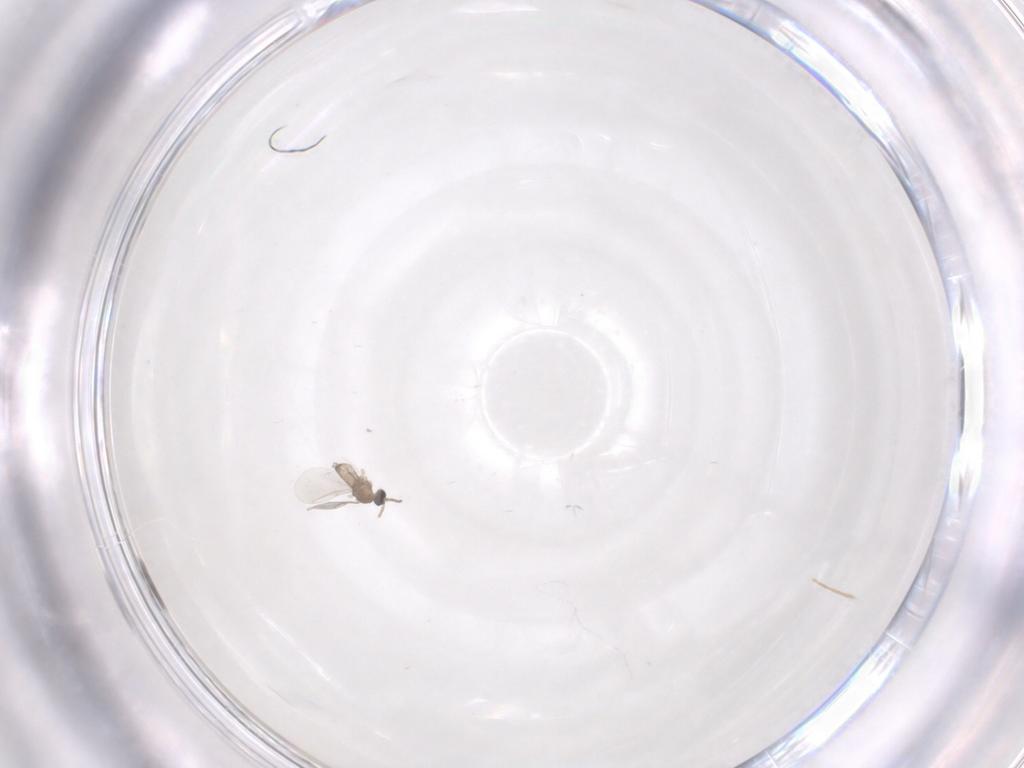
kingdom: Animalia
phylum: Arthropoda
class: Insecta
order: Diptera
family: Cecidomyiidae
